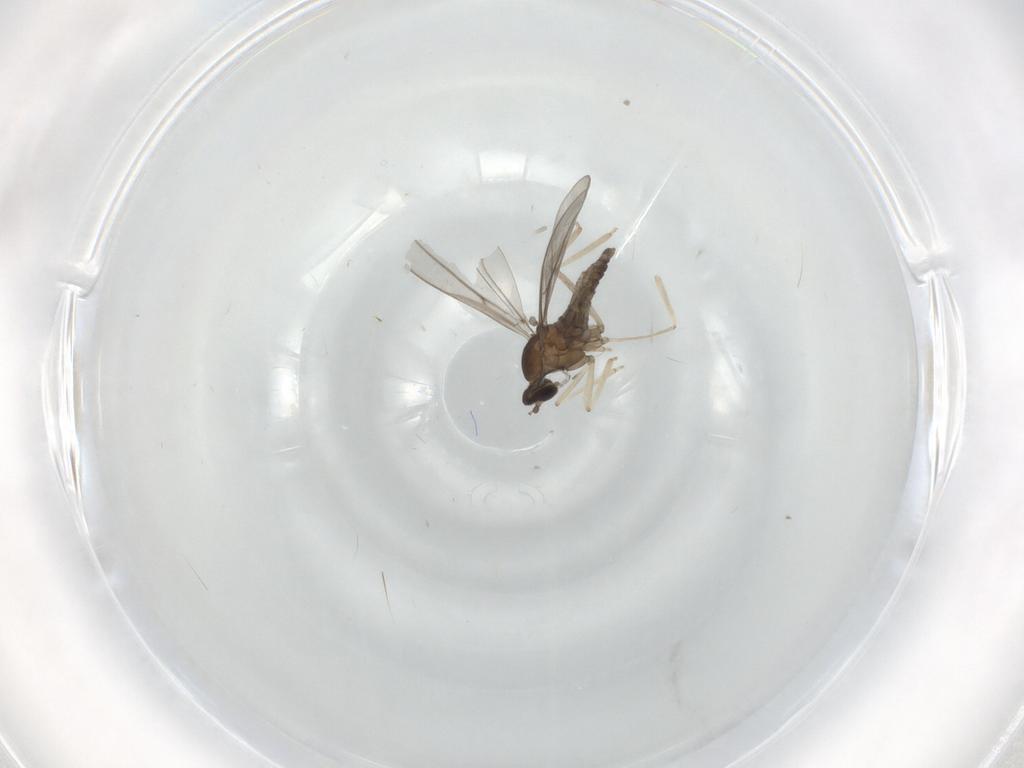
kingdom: Animalia
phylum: Arthropoda
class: Insecta
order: Diptera
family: Cecidomyiidae
